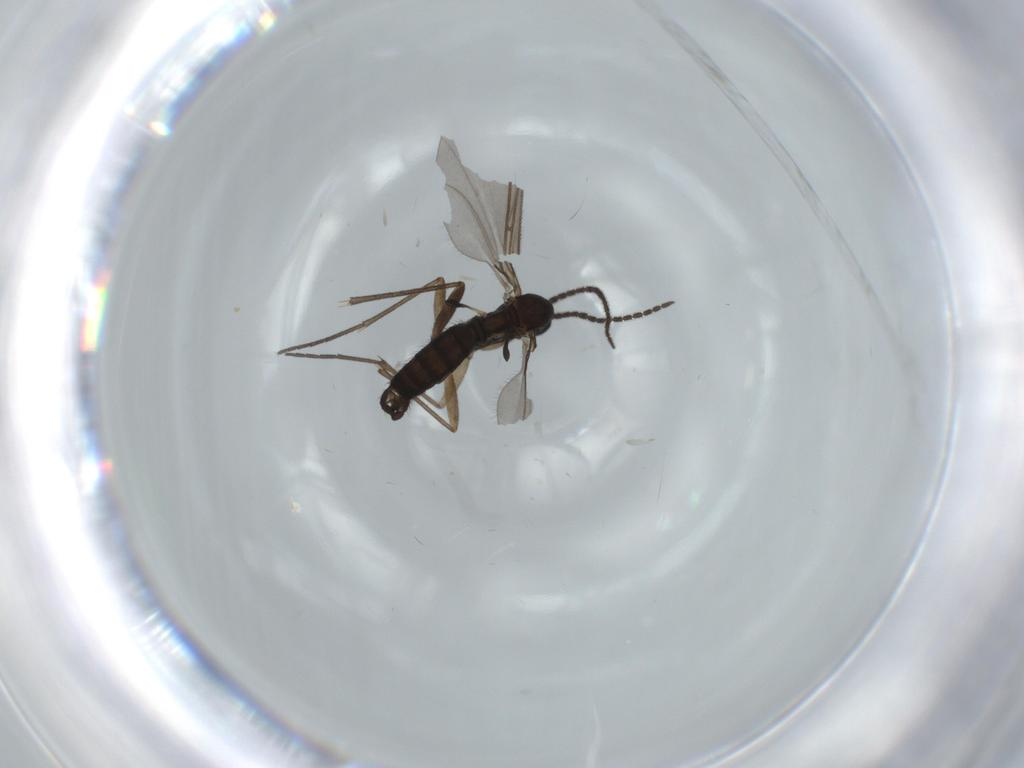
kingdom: Animalia
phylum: Arthropoda
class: Insecta
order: Diptera
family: Sciaridae
